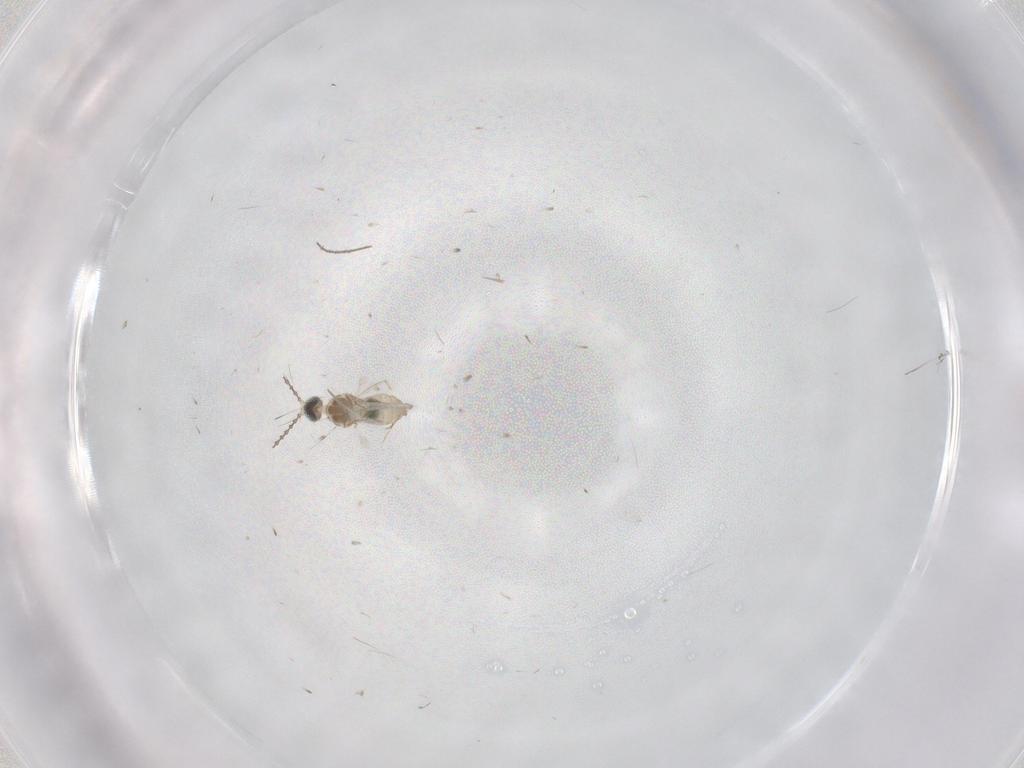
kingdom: Animalia
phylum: Arthropoda
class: Insecta
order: Diptera
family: Cecidomyiidae
